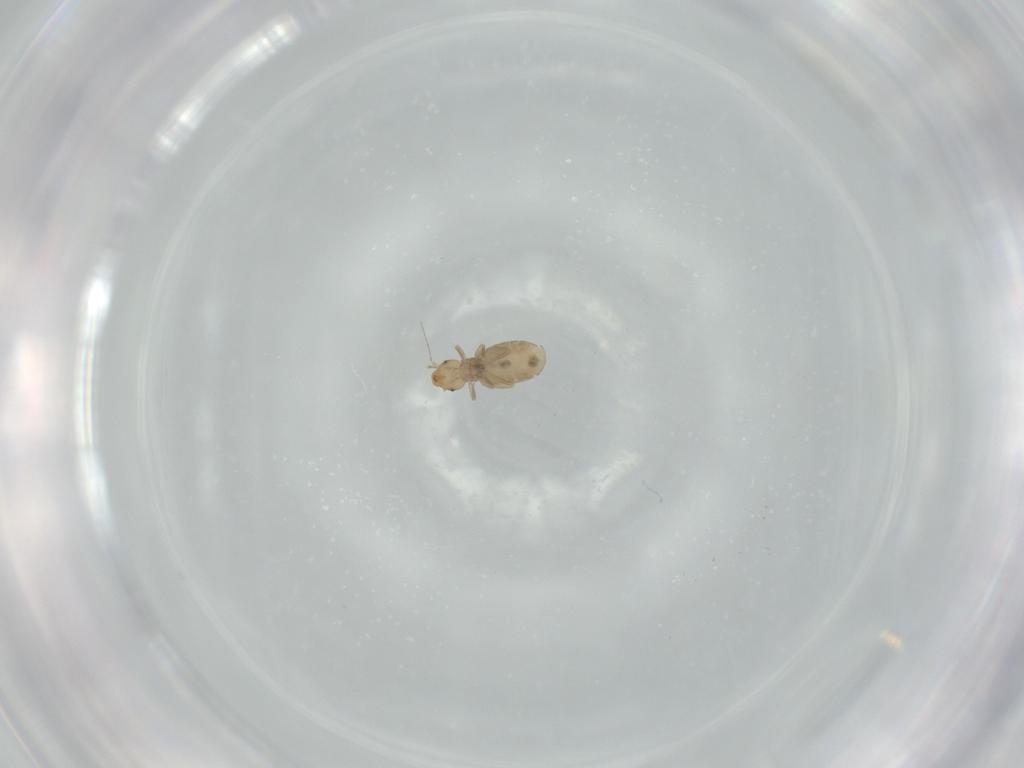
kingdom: Animalia
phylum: Arthropoda
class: Insecta
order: Psocodea
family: Liposcelididae
